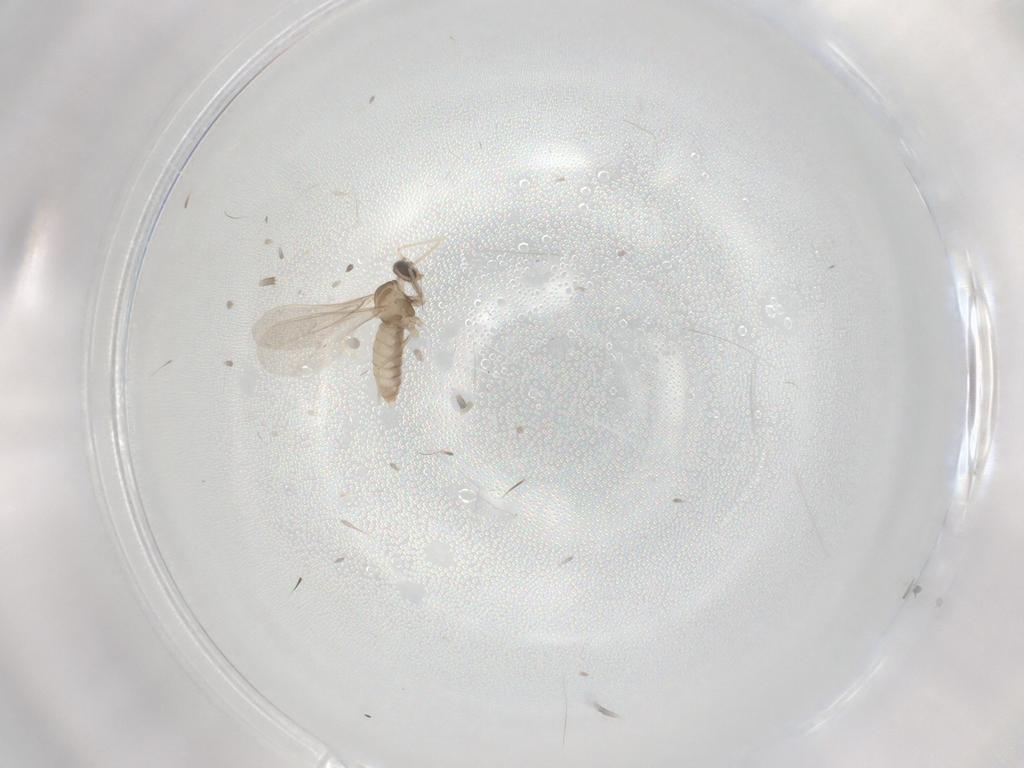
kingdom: Animalia
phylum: Arthropoda
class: Insecta
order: Diptera
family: Cecidomyiidae
